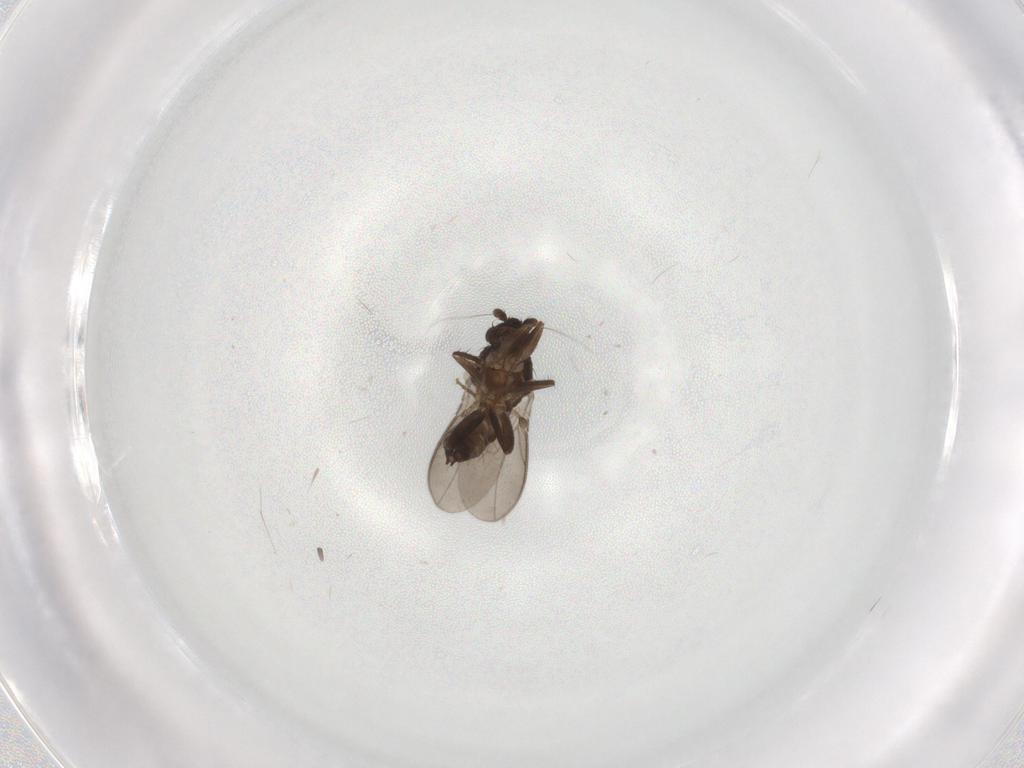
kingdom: Animalia
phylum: Arthropoda
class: Insecta
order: Diptera
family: Sphaeroceridae
